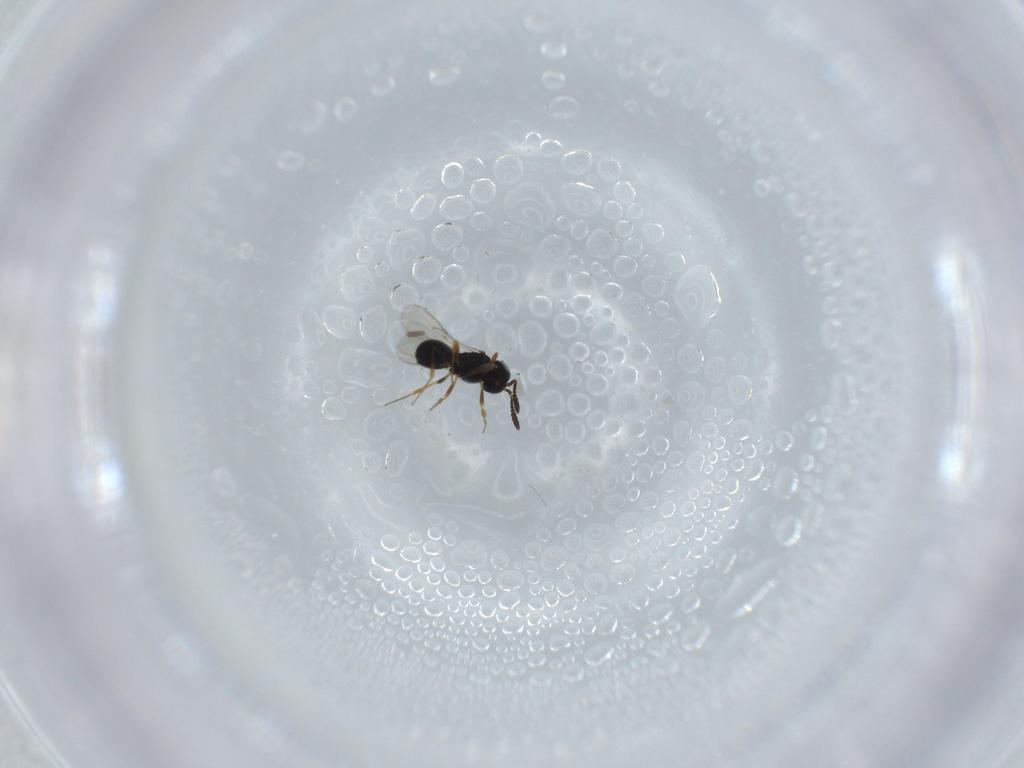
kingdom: Animalia
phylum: Arthropoda
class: Insecta
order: Hymenoptera
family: Scelionidae
